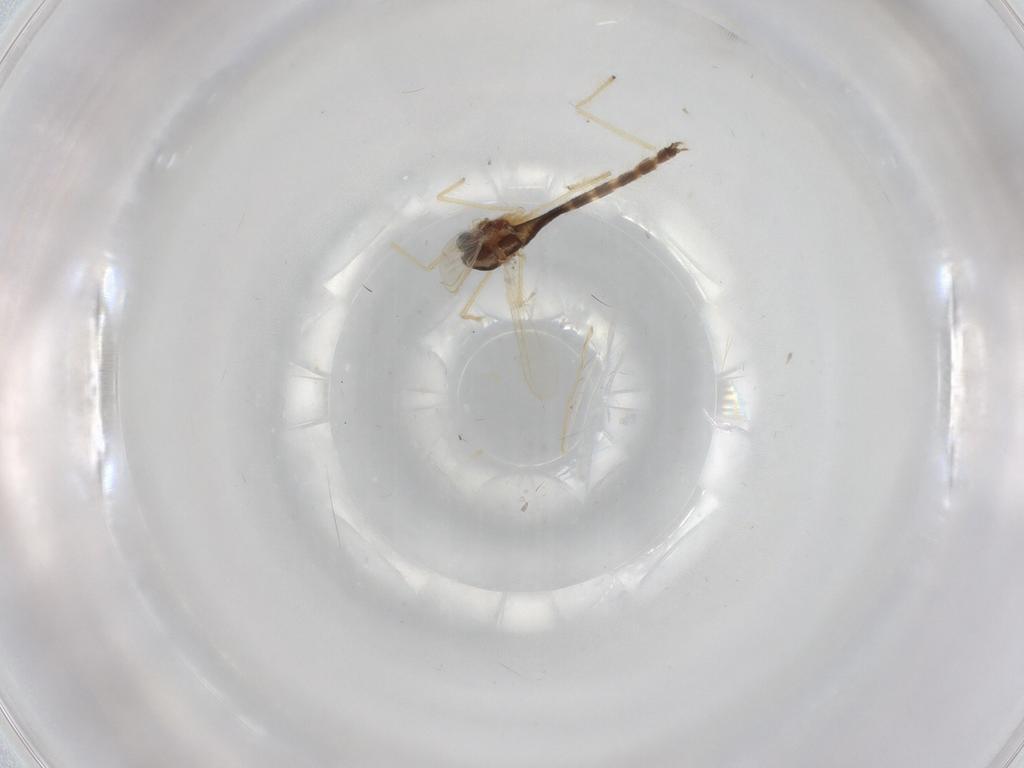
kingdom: Animalia
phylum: Arthropoda
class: Insecta
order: Diptera
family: Chironomidae
